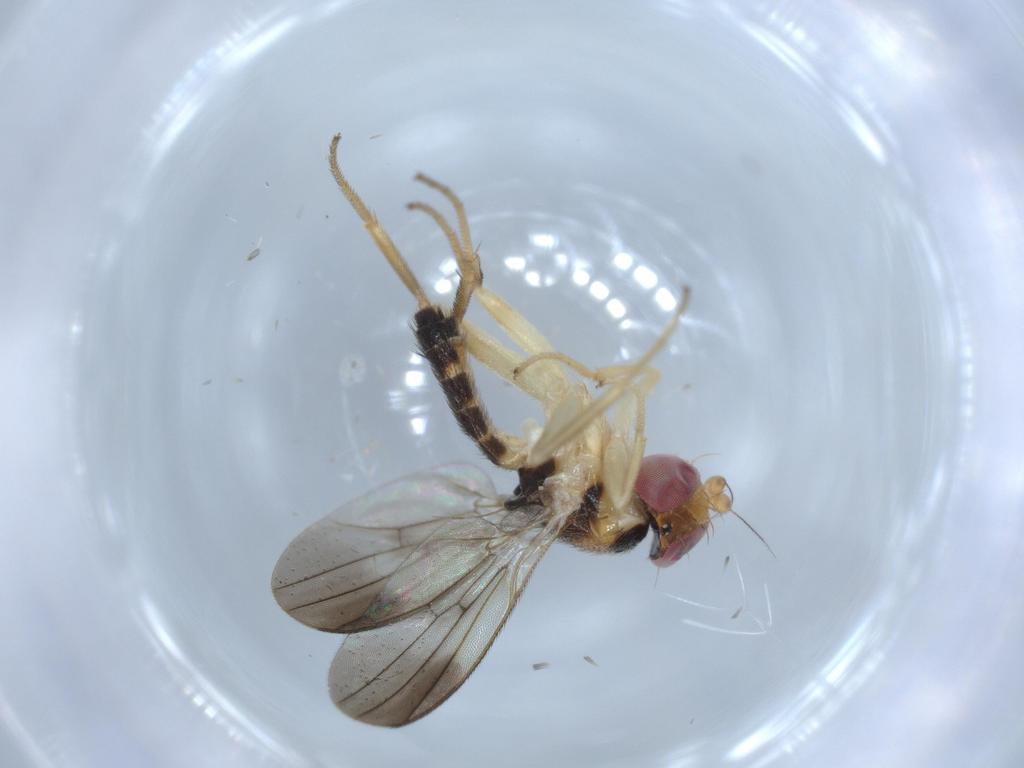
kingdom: Animalia
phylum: Arthropoda
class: Insecta
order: Diptera
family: Clusiidae
